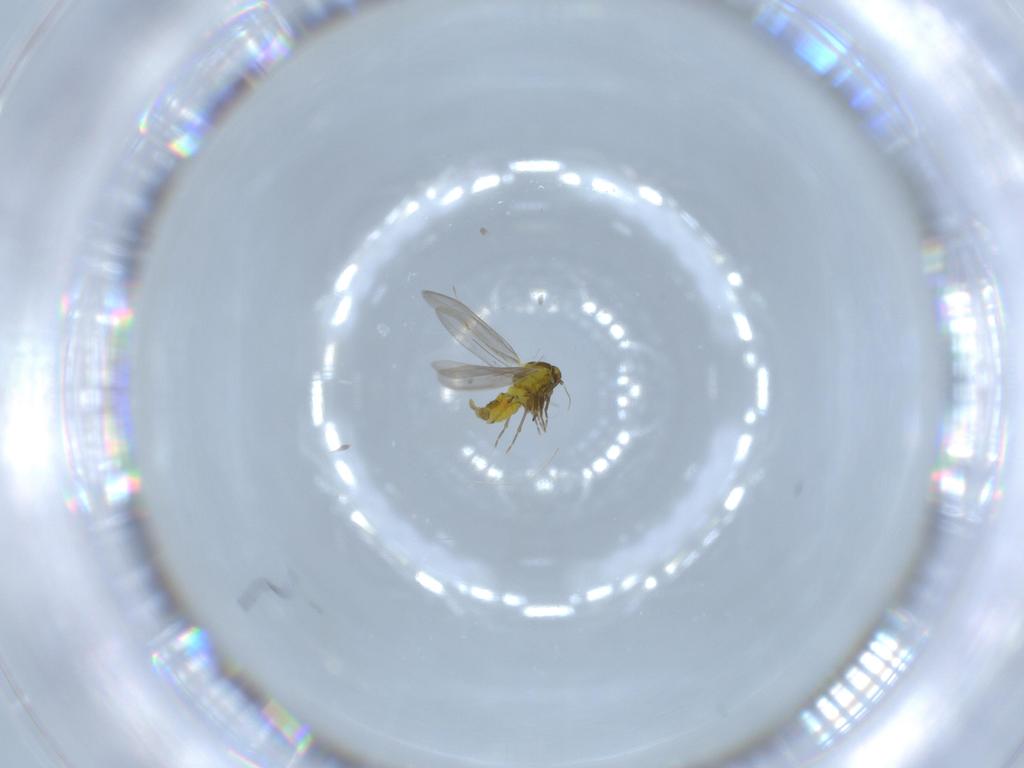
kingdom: Animalia
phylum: Arthropoda
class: Insecta
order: Hemiptera
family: Aleyrodidae
